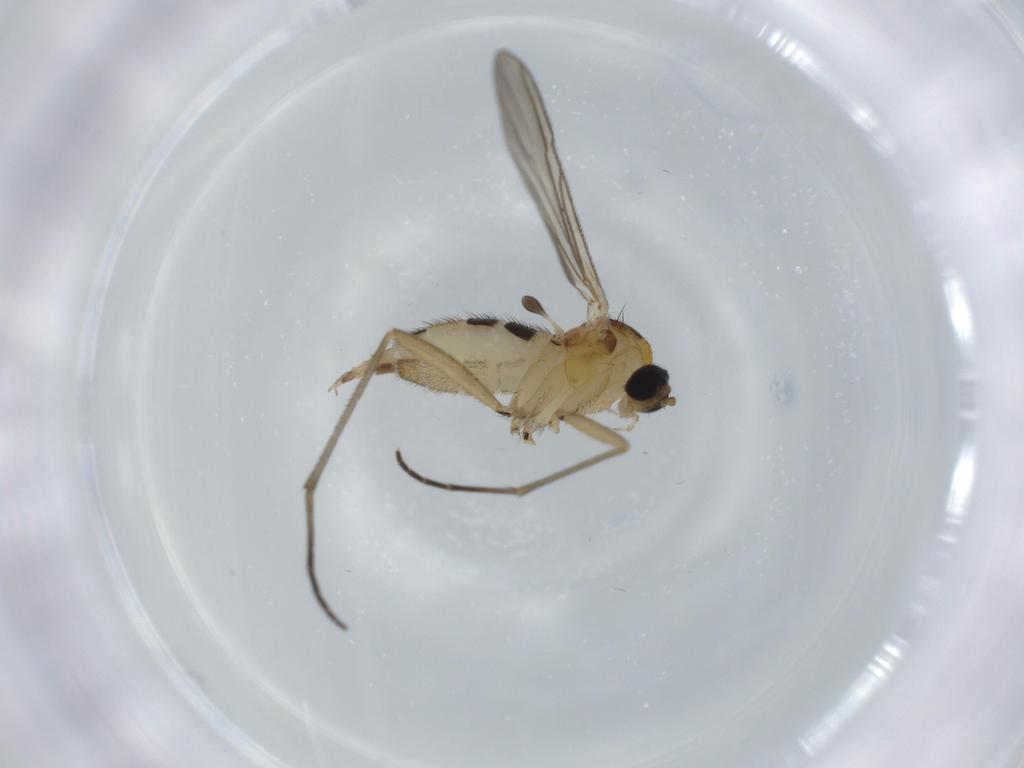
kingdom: Animalia
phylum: Arthropoda
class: Insecta
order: Diptera
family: Sciaridae
